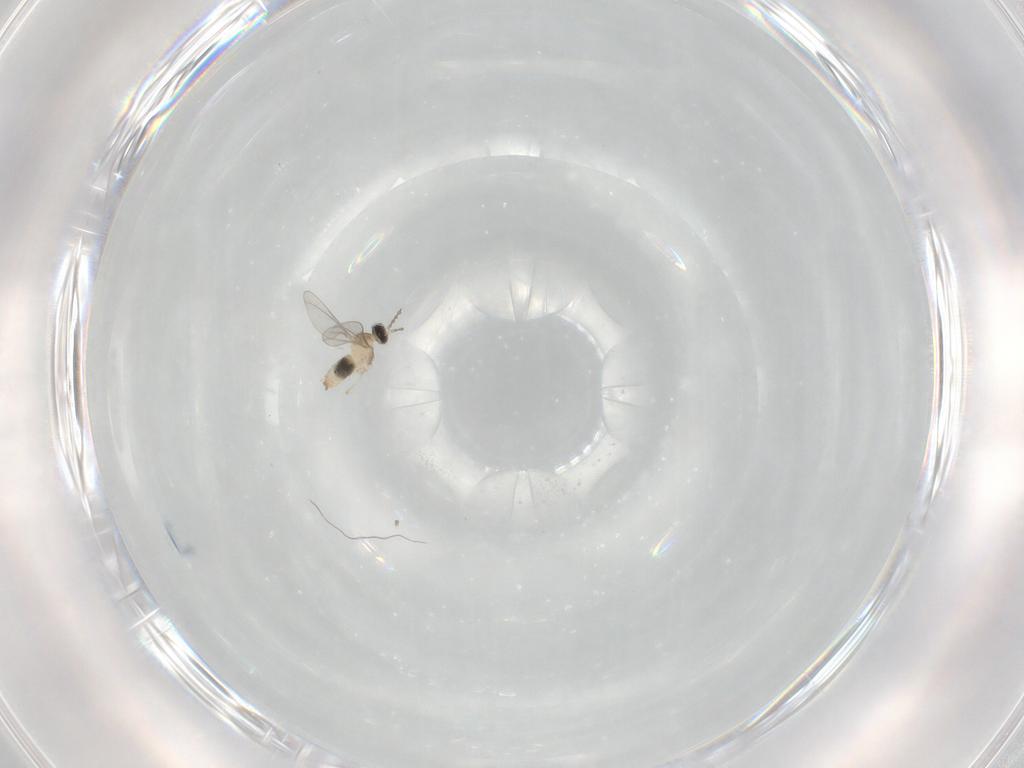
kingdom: Animalia
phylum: Arthropoda
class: Insecta
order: Diptera
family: Cecidomyiidae
